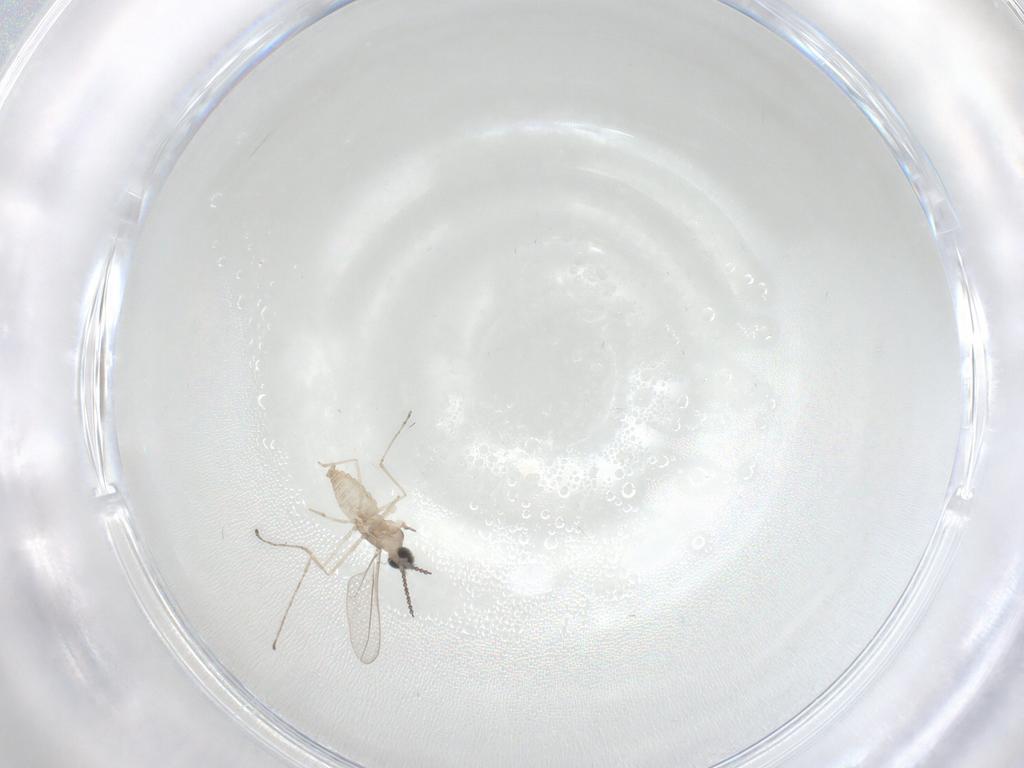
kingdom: Animalia
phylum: Arthropoda
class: Insecta
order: Diptera
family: Cecidomyiidae
